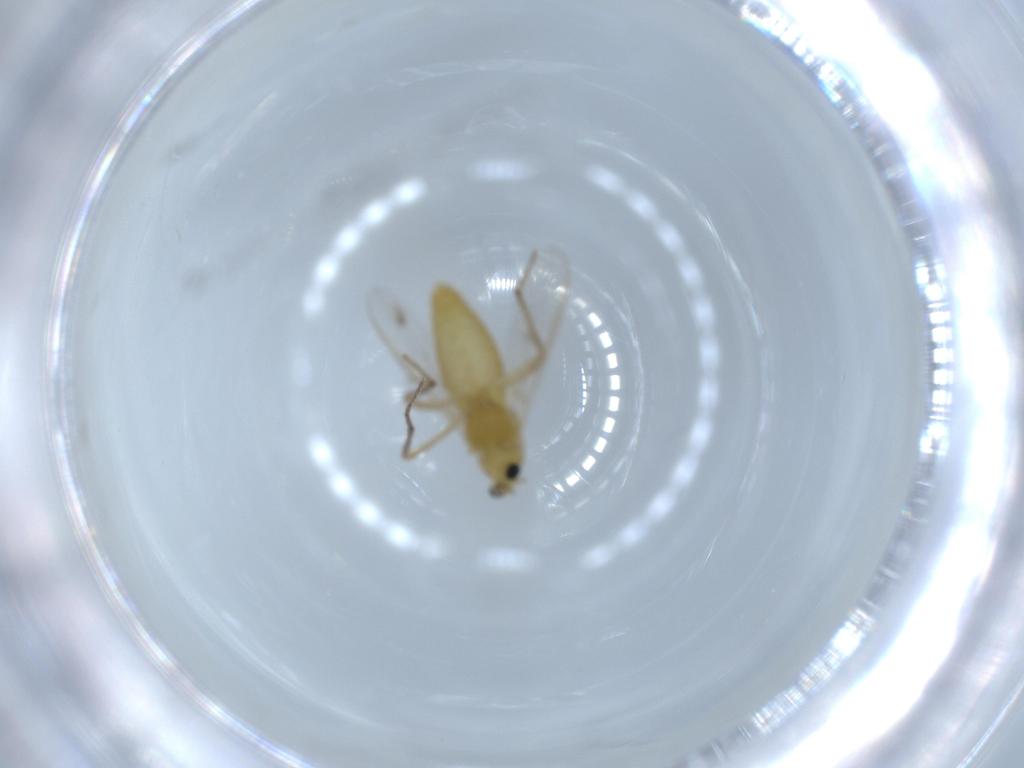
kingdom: Animalia
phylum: Arthropoda
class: Insecta
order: Diptera
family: Chironomidae
